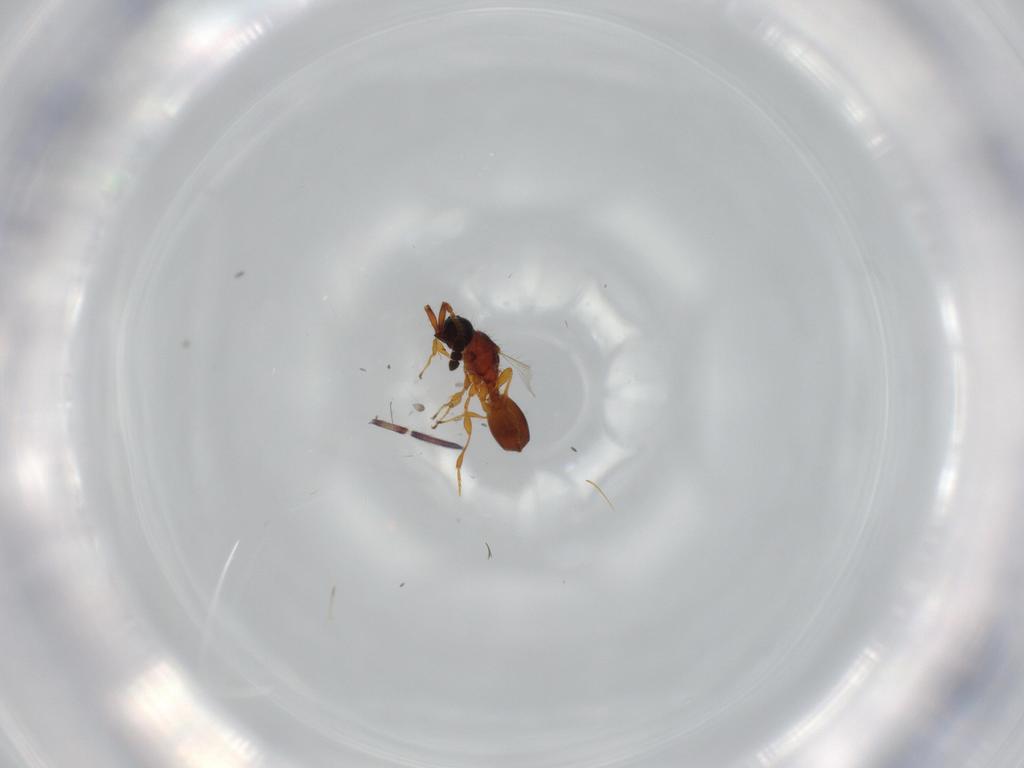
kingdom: Animalia
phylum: Arthropoda
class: Insecta
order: Hymenoptera
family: Diapriidae
